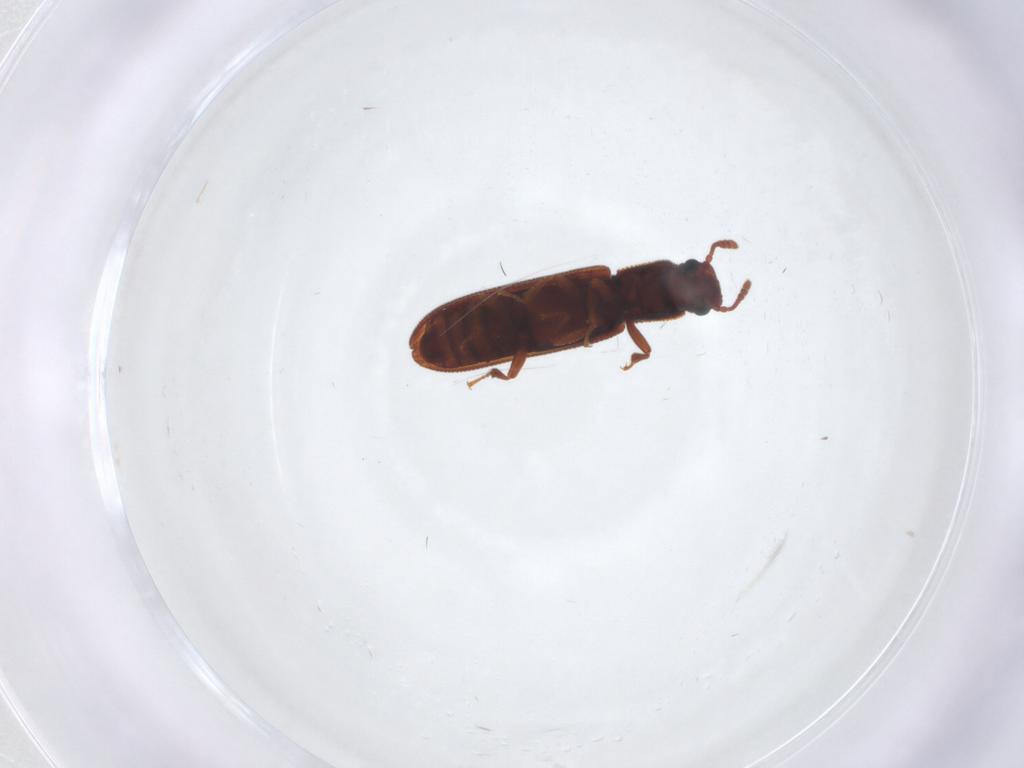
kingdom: Animalia
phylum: Arthropoda
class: Insecta
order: Coleoptera
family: Zopheridae
